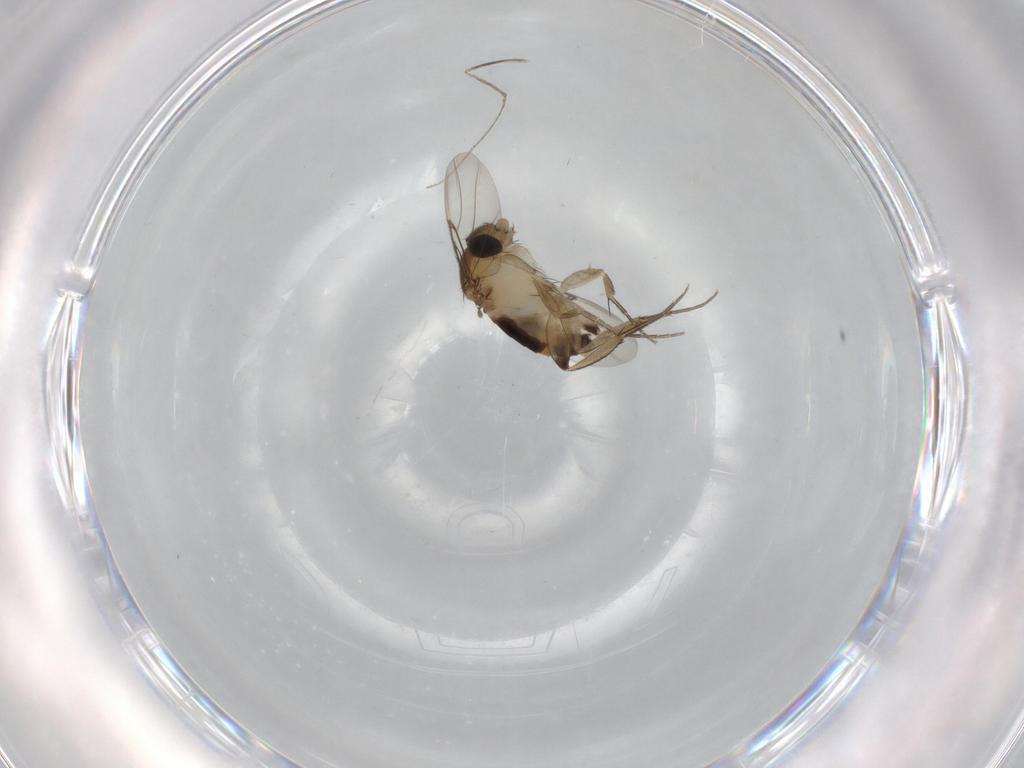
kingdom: Animalia
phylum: Arthropoda
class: Insecta
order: Diptera
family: Chironomidae
